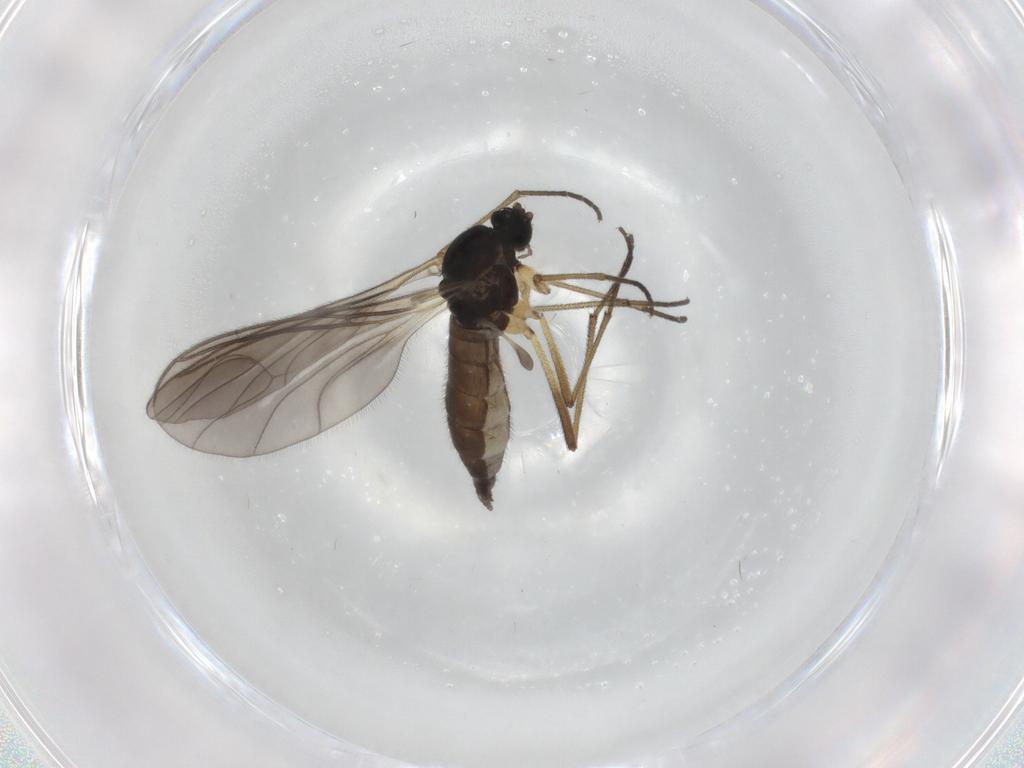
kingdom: Animalia
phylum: Arthropoda
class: Insecta
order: Diptera
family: Sciaridae
